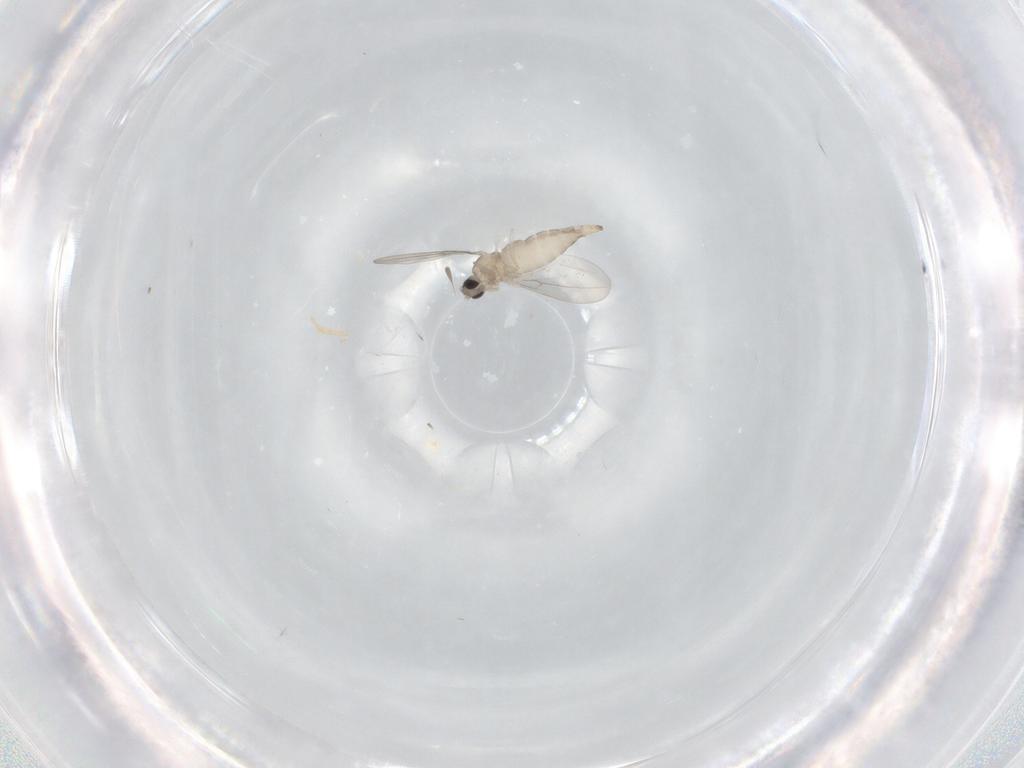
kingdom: Animalia
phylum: Arthropoda
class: Insecta
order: Diptera
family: Cecidomyiidae
